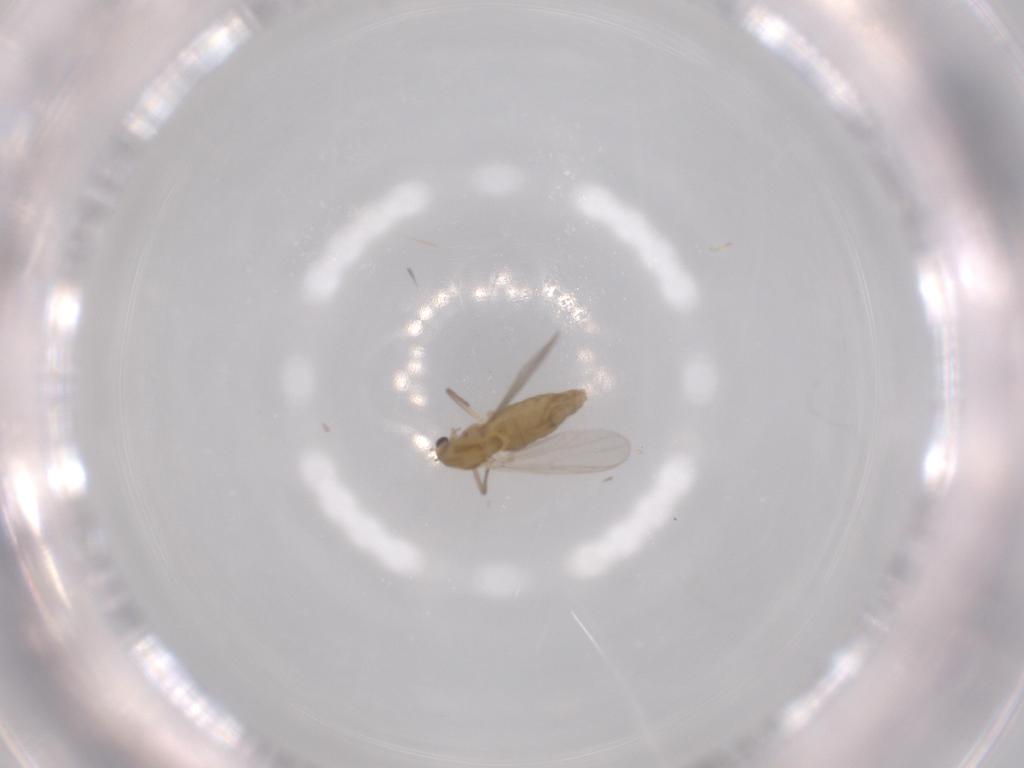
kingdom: Animalia
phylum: Arthropoda
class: Insecta
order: Diptera
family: Chironomidae
